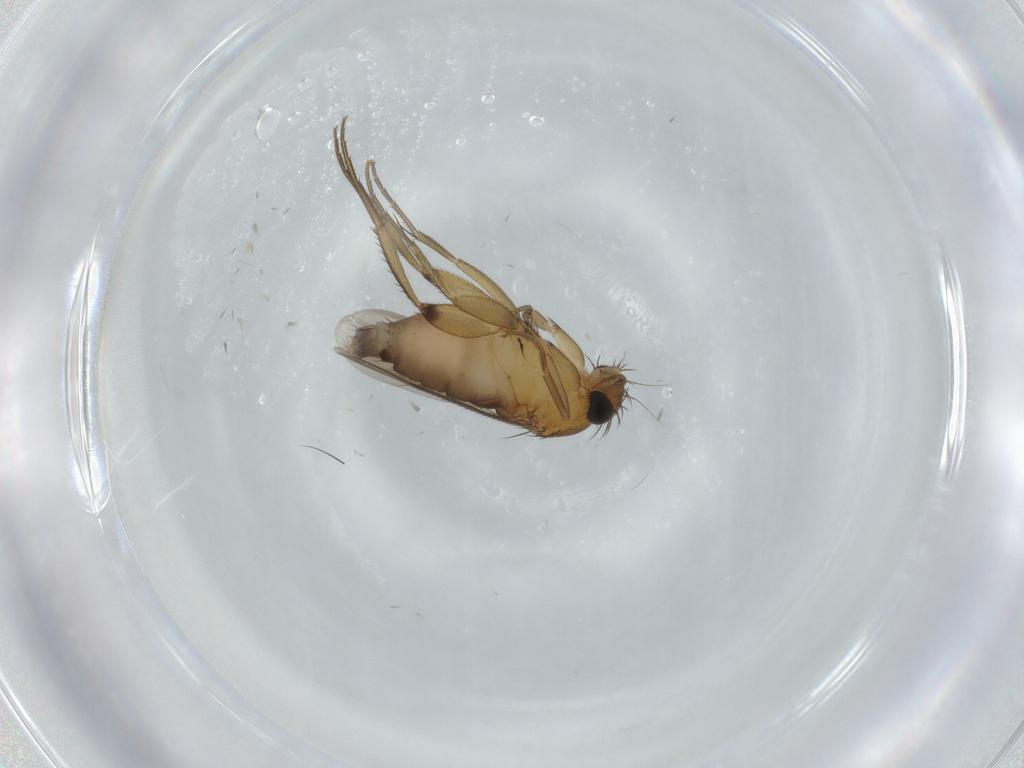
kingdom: Animalia
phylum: Arthropoda
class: Insecta
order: Diptera
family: Phoridae
